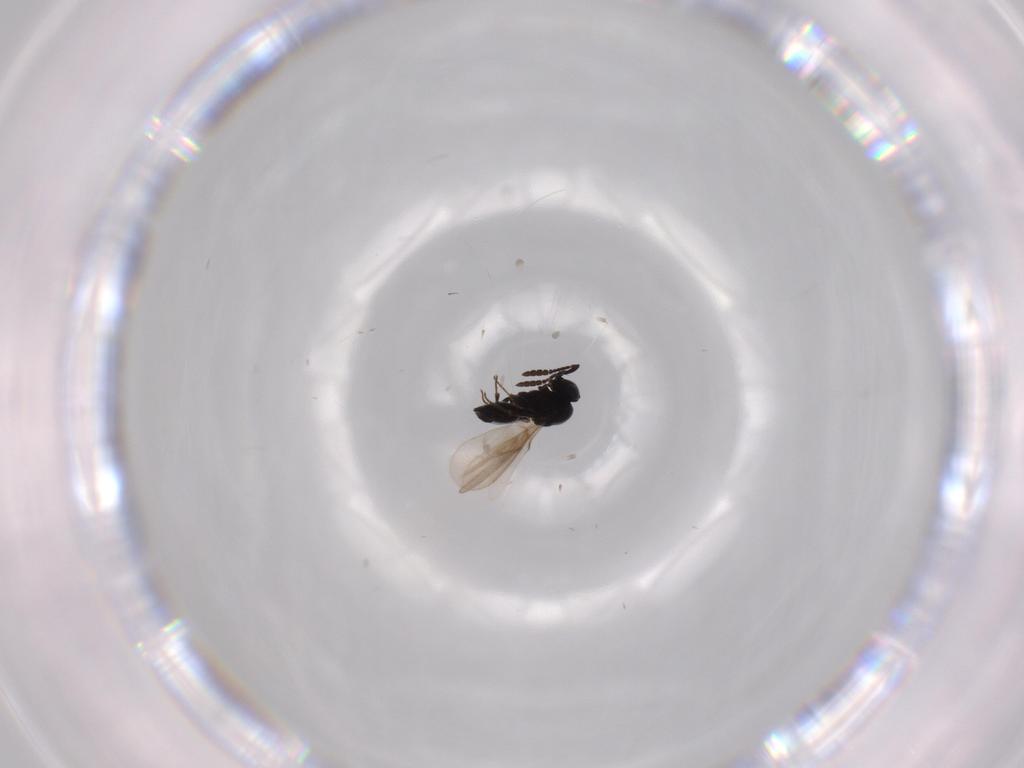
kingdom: Animalia
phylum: Arthropoda
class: Insecta
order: Hymenoptera
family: Scelionidae
